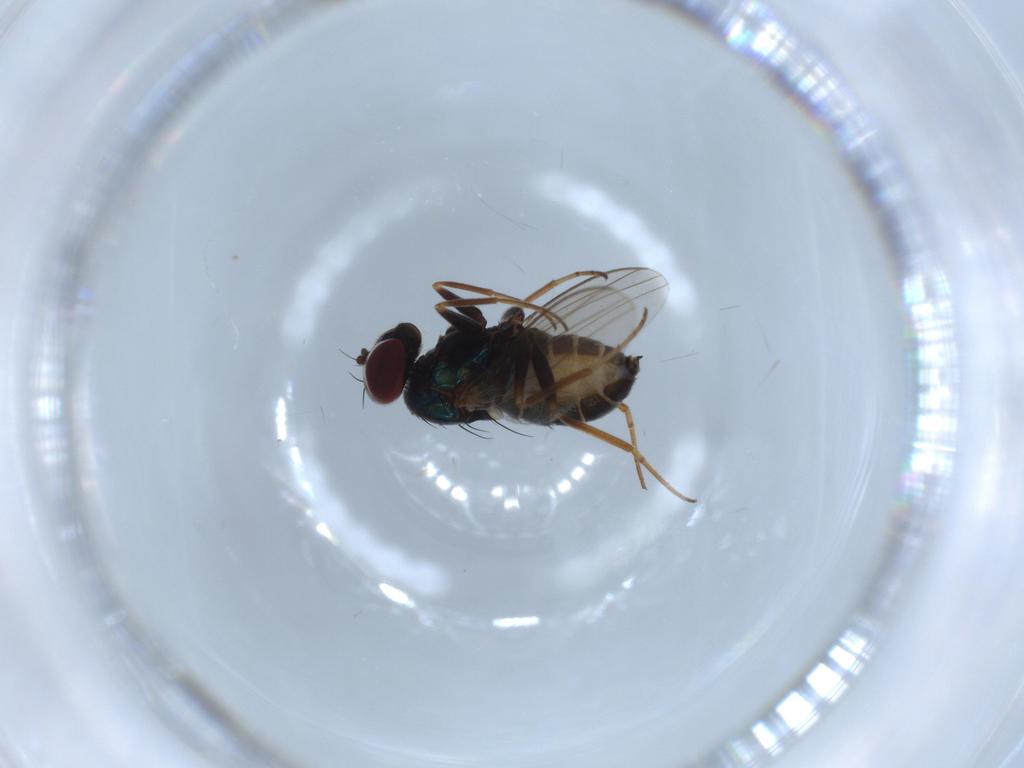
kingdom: Animalia
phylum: Arthropoda
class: Insecta
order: Diptera
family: Dolichopodidae
